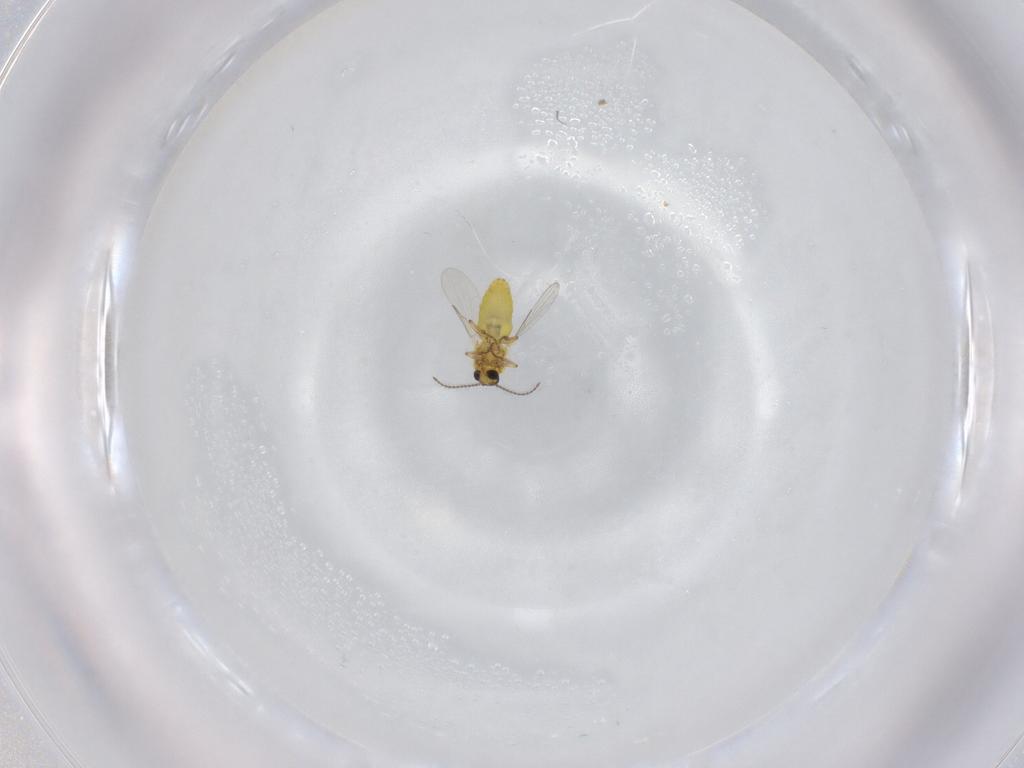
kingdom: Animalia
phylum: Arthropoda
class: Insecta
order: Diptera
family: Ceratopogonidae
